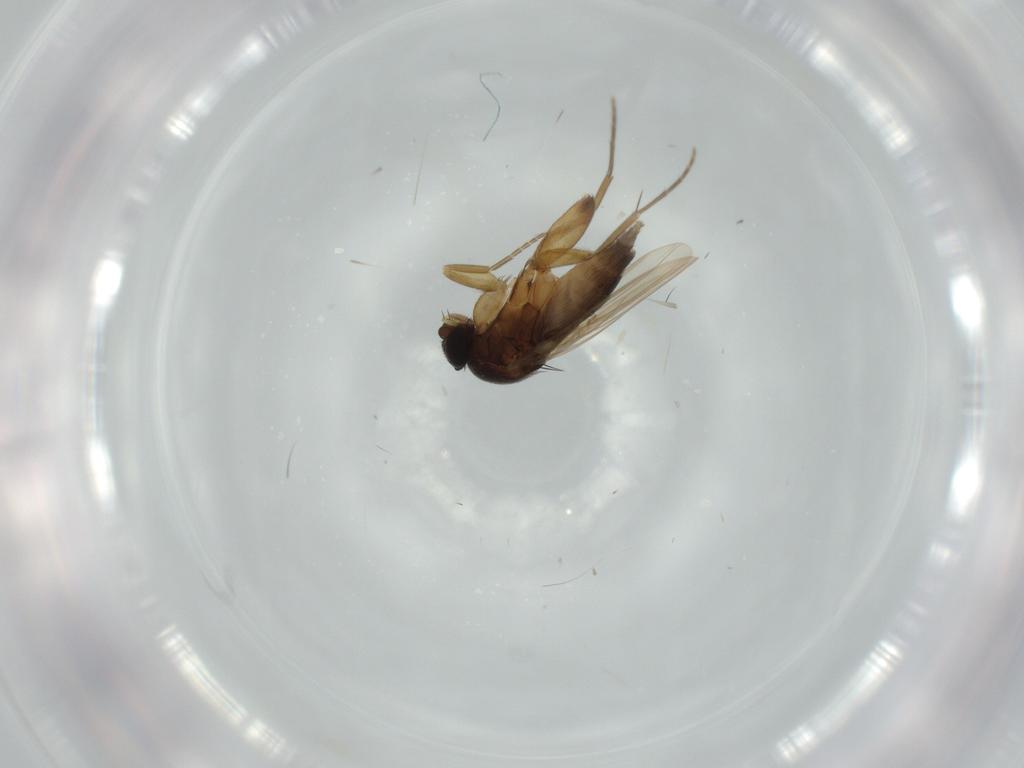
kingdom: Animalia
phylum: Arthropoda
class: Insecta
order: Diptera
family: Phoridae
